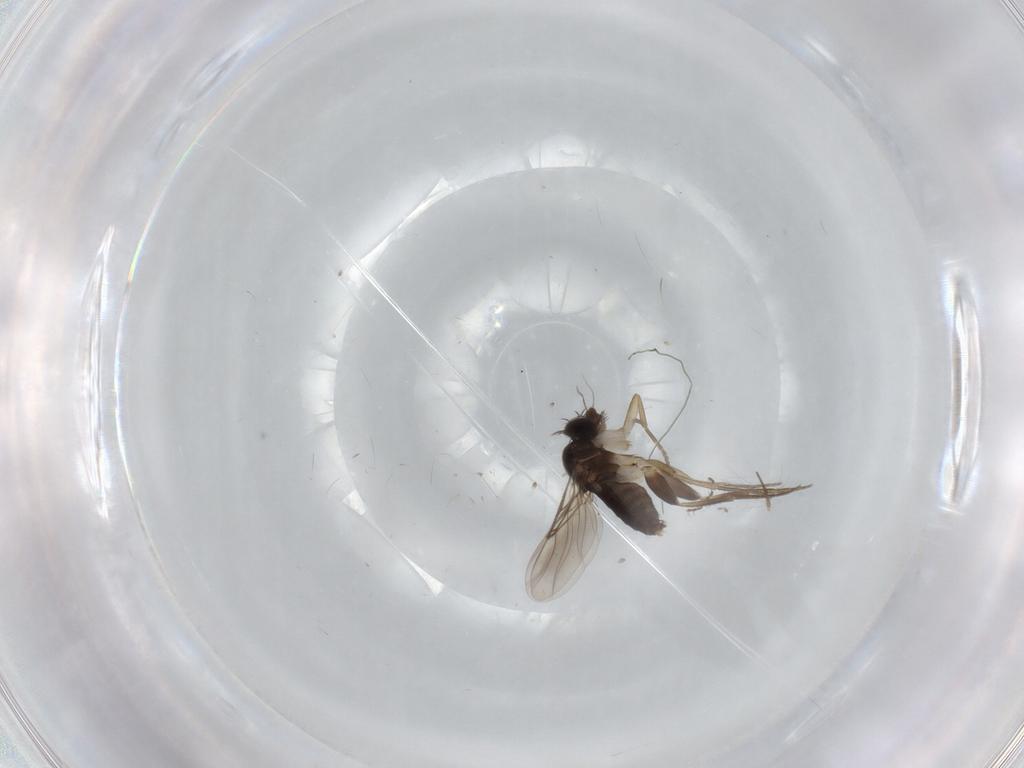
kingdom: Animalia
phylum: Arthropoda
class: Insecta
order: Diptera
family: Phoridae
